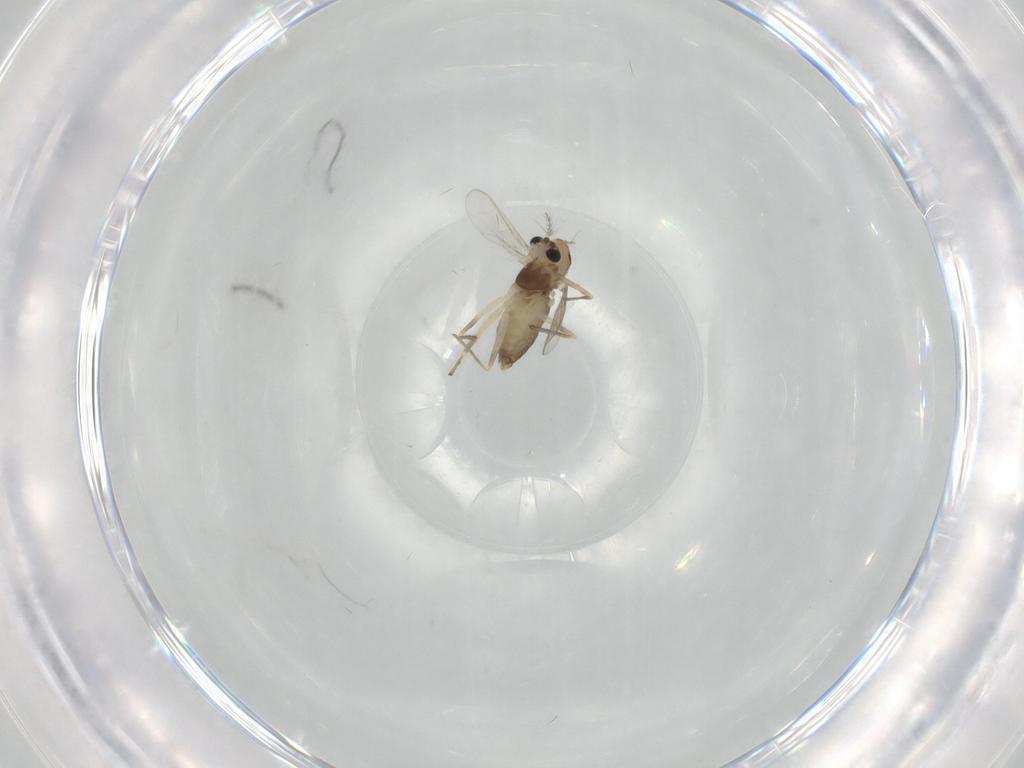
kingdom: Animalia
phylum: Arthropoda
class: Insecta
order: Diptera
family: Chironomidae
